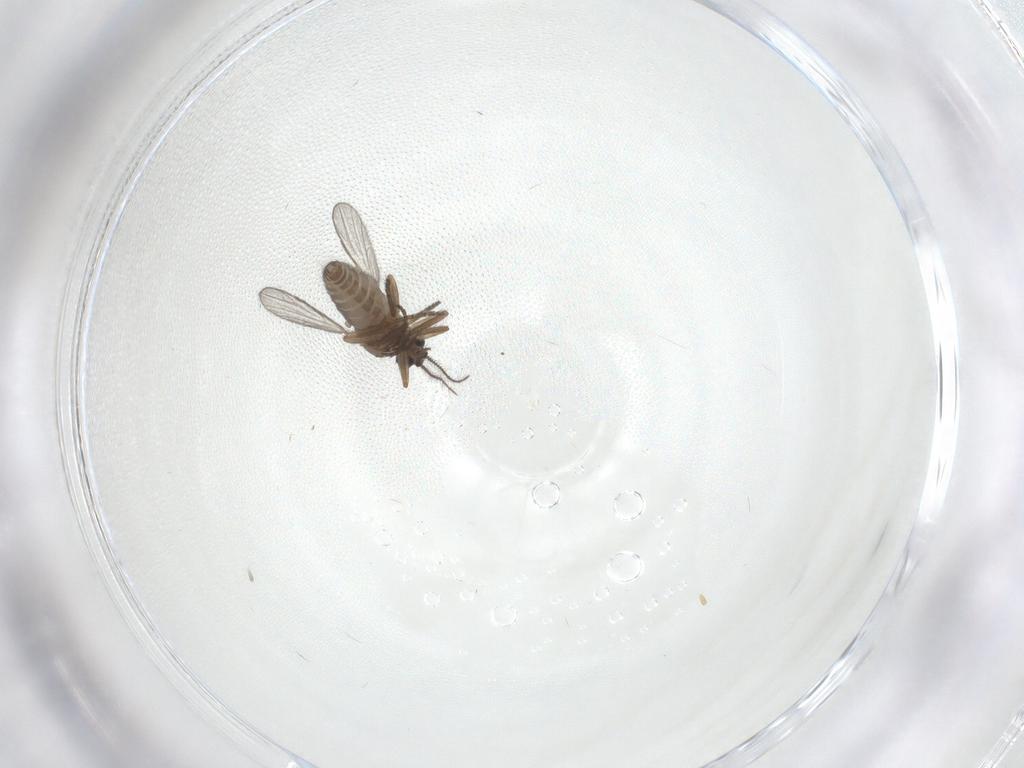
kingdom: Animalia
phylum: Arthropoda
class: Insecta
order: Diptera
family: Ceratopogonidae
